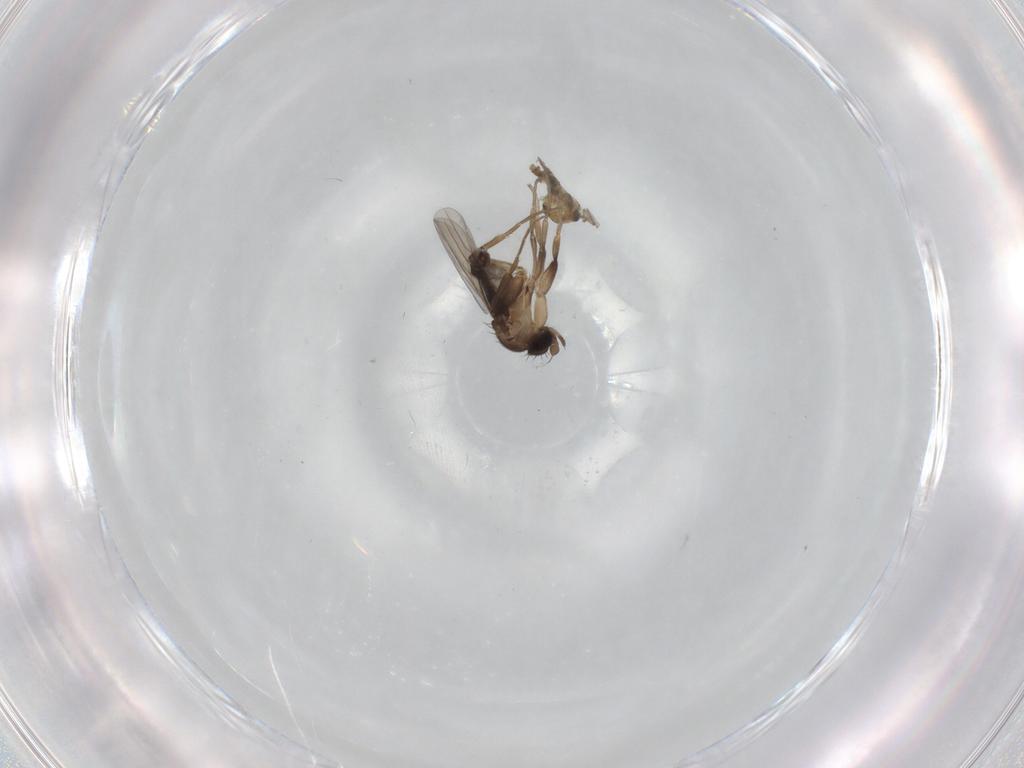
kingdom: Animalia
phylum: Arthropoda
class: Insecta
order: Diptera
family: Chironomidae
